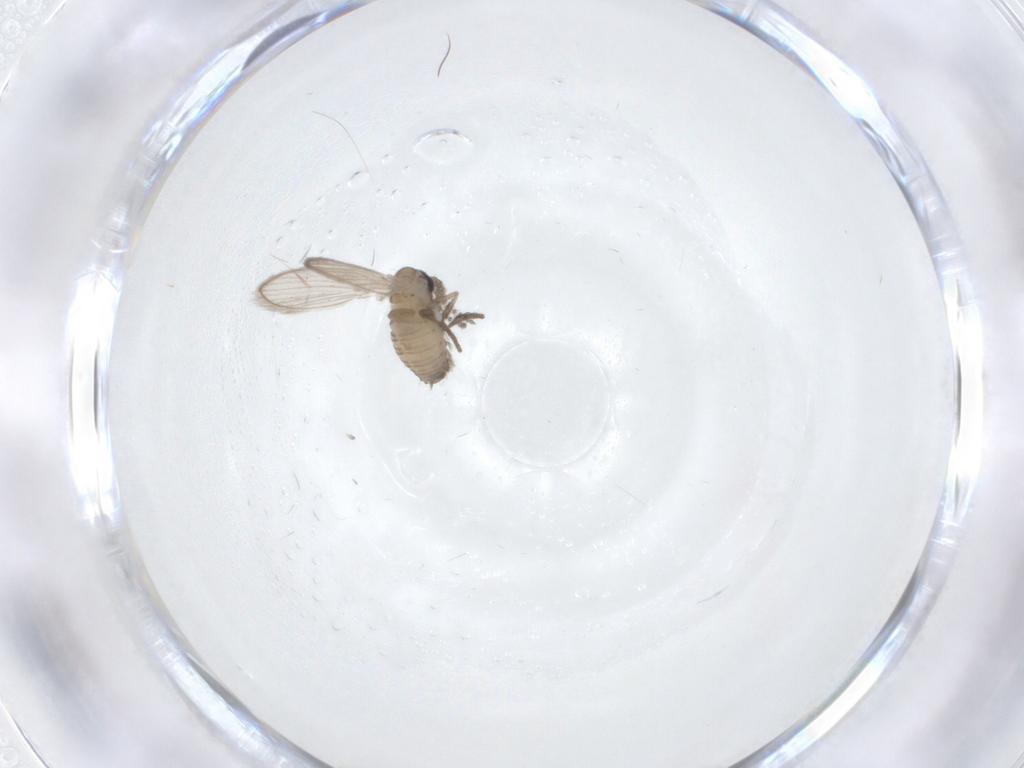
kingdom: Animalia
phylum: Arthropoda
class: Insecta
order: Diptera
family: Psychodidae
